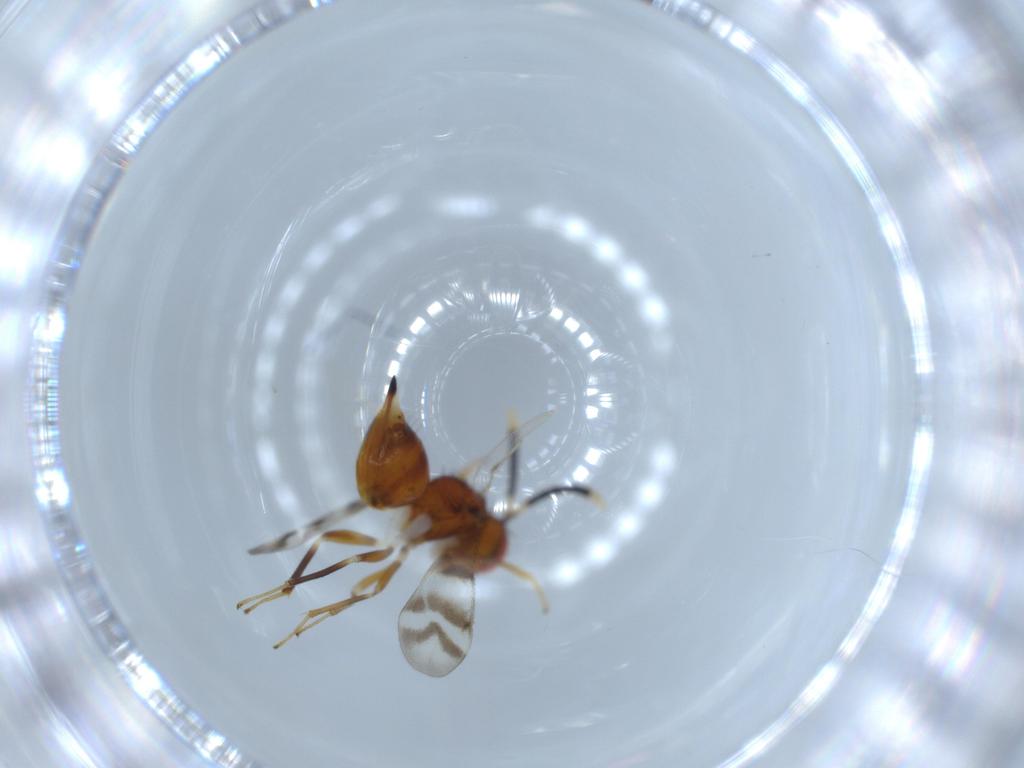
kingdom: Animalia
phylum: Arthropoda
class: Insecta
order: Hymenoptera
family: Diparidae
